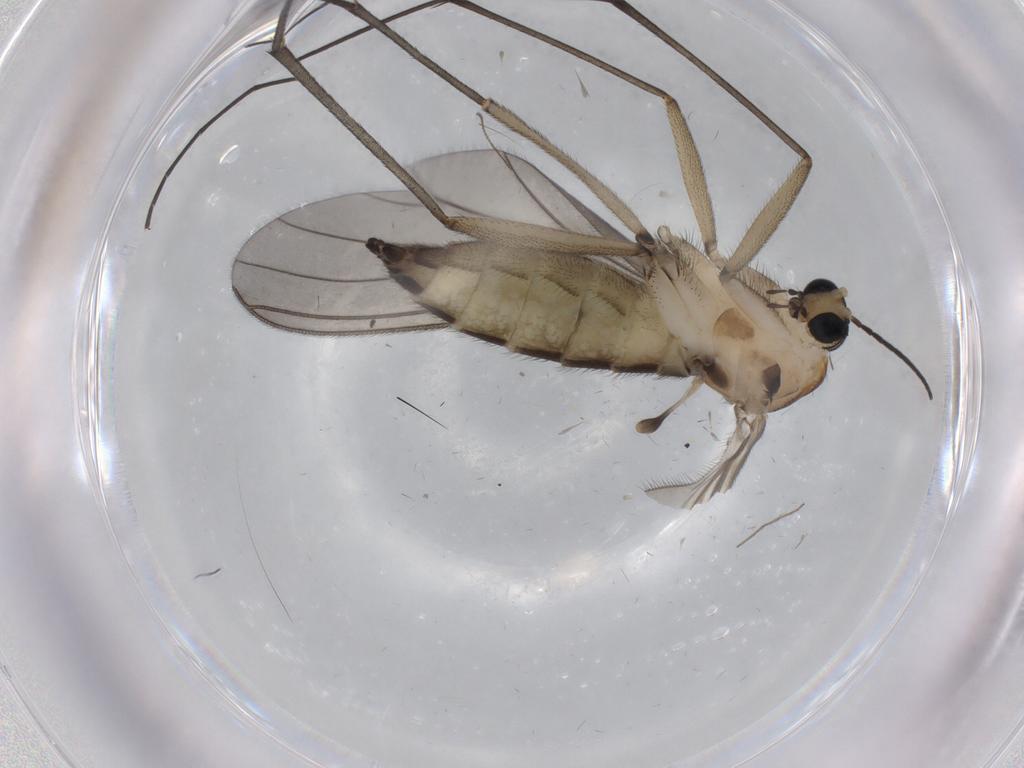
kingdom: Animalia
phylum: Arthropoda
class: Insecta
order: Diptera
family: Sciaridae
